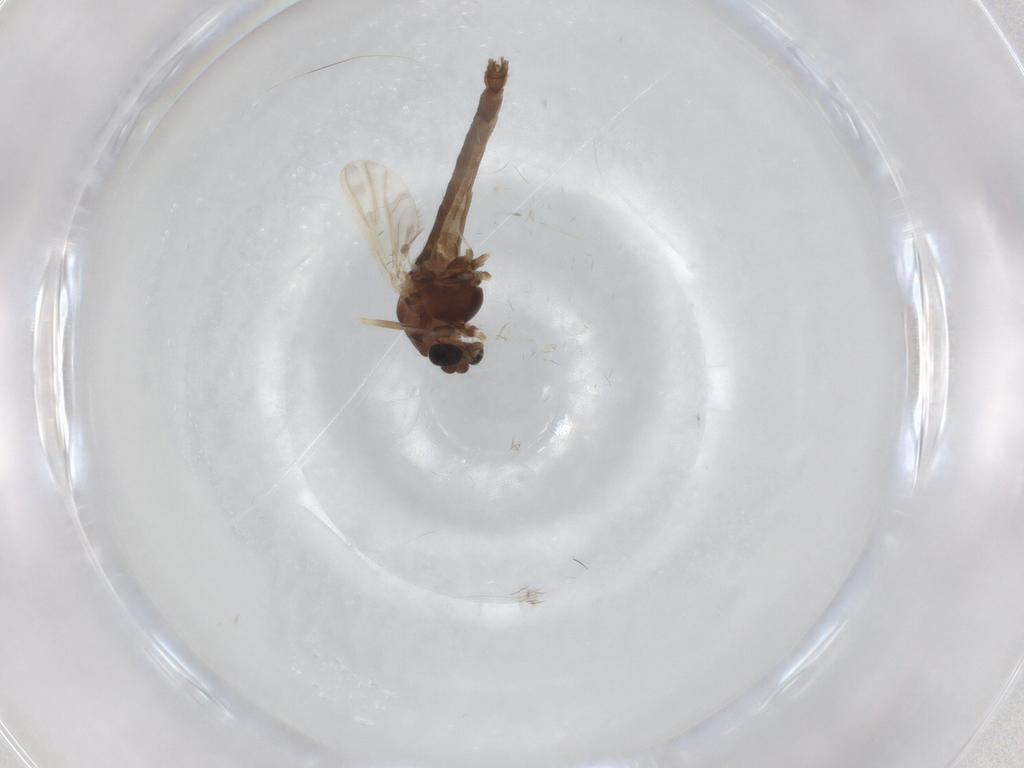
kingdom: Animalia
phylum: Arthropoda
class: Insecta
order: Diptera
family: Chironomidae
